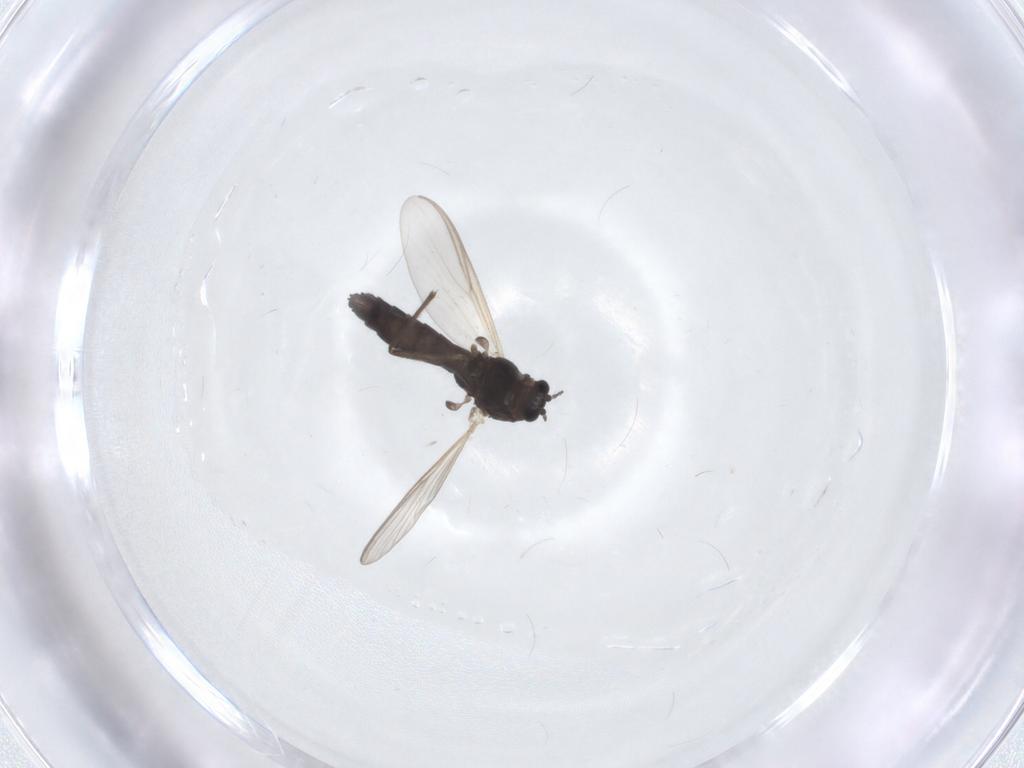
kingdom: Animalia
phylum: Arthropoda
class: Insecta
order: Diptera
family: Chironomidae
